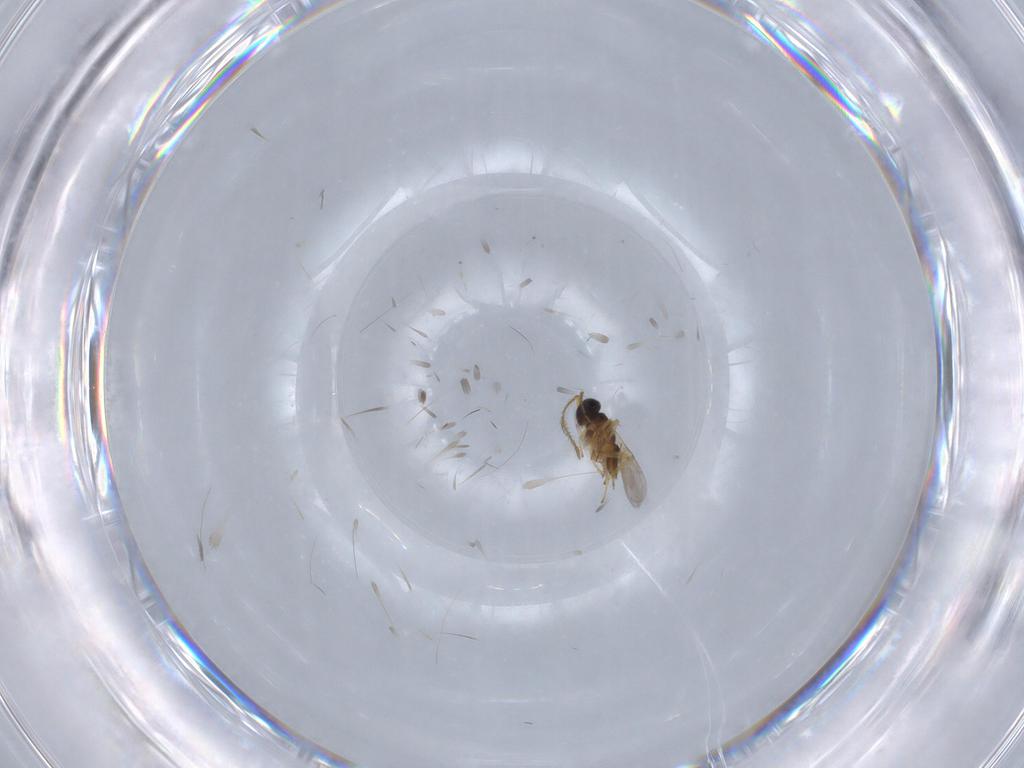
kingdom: Animalia
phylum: Arthropoda
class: Insecta
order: Hymenoptera
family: Encyrtidae
